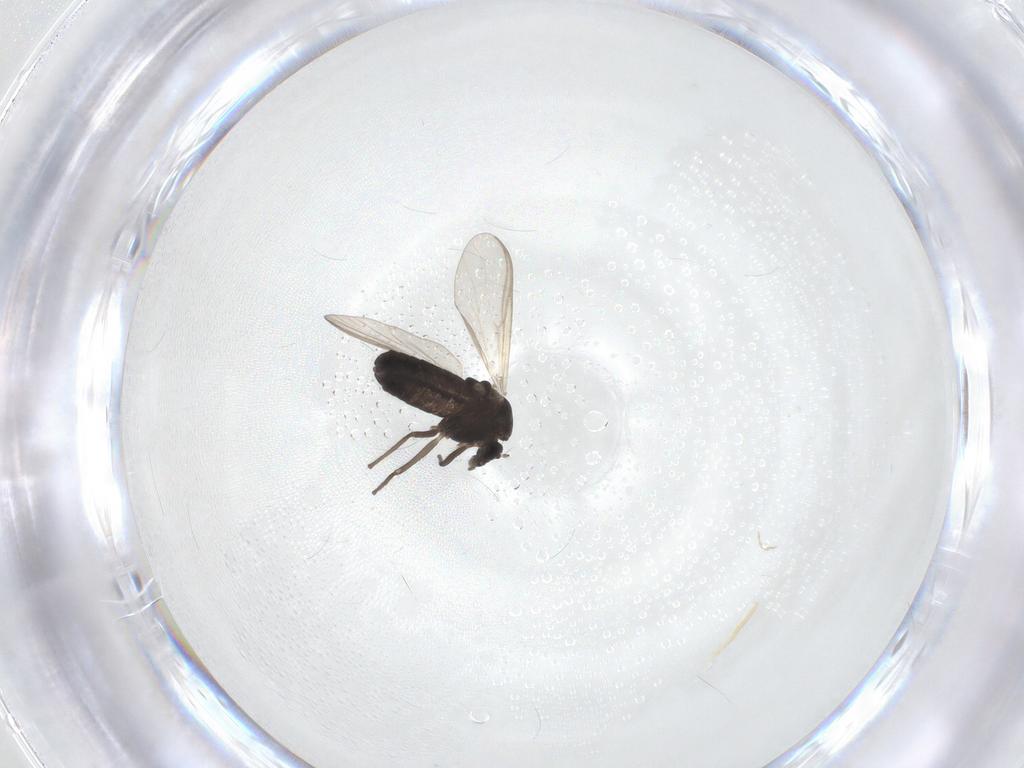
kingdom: Animalia
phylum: Arthropoda
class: Insecta
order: Diptera
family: Chironomidae
